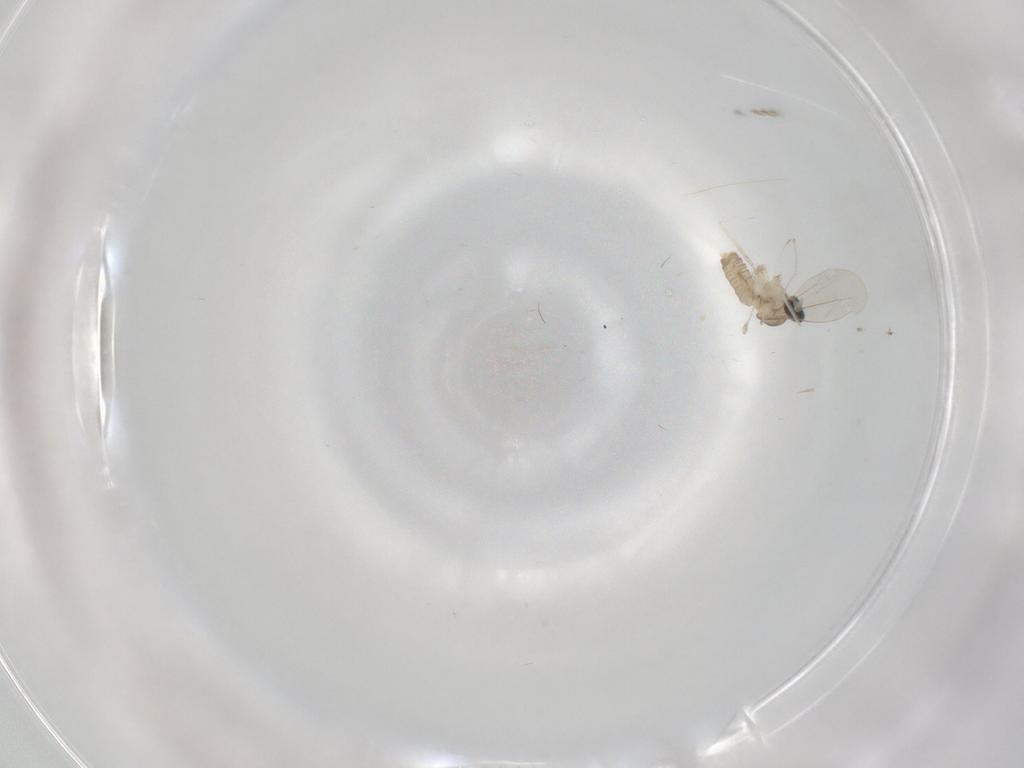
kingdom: Animalia
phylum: Arthropoda
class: Insecta
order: Diptera
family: Cecidomyiidae
